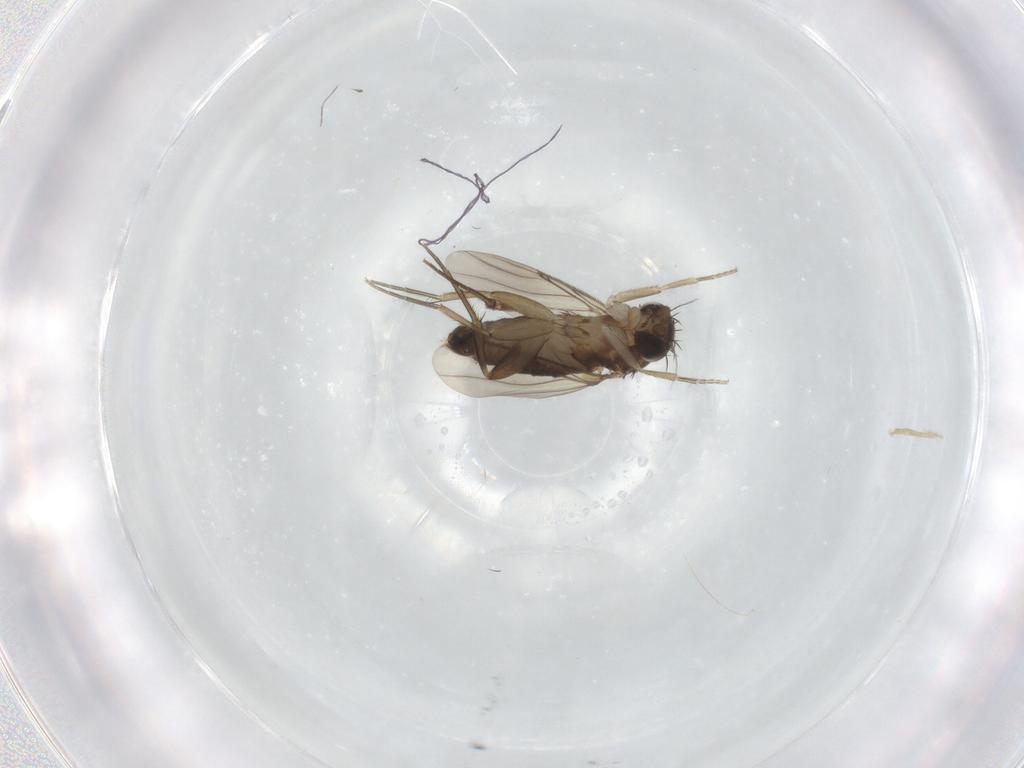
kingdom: Animalia
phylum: Arthropoda
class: Insecta
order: Diptera
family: Phoridae
